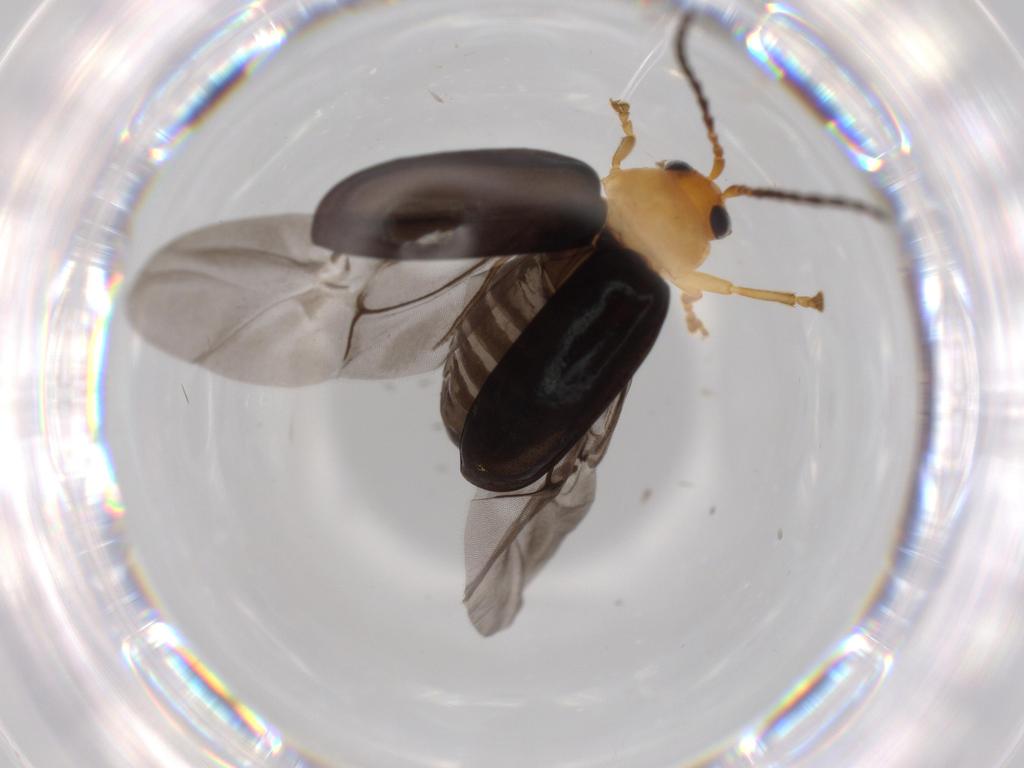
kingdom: Animalia
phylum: Arthropoda
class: Insecta
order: Coleoptera
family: Leiodidae
